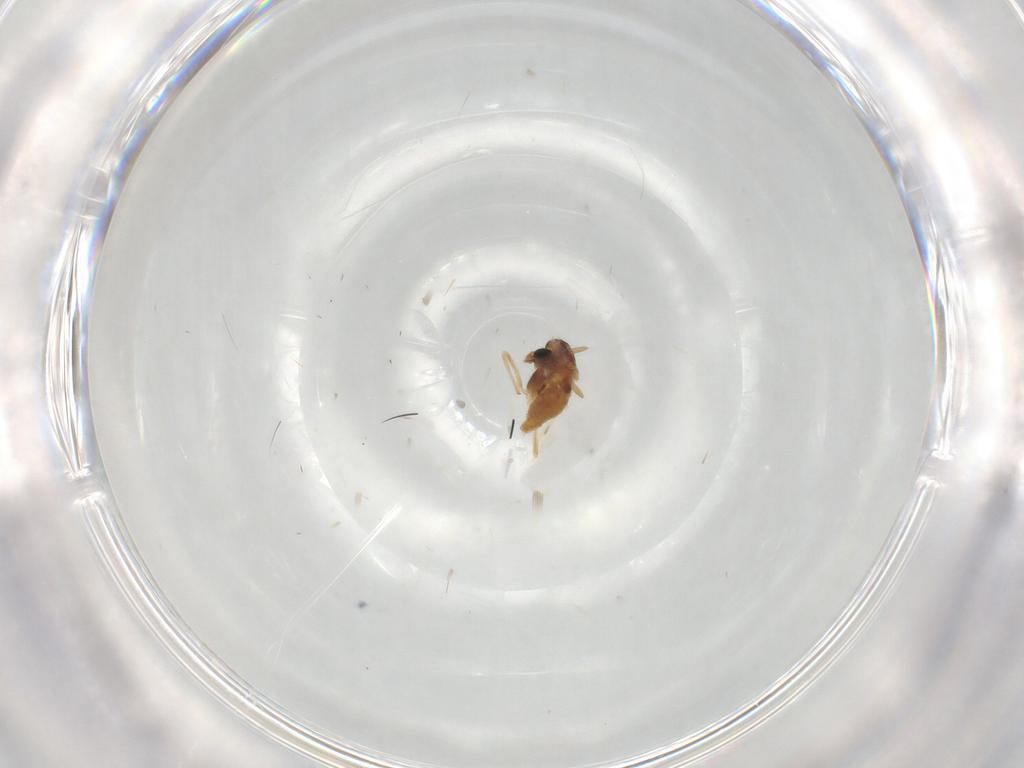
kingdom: Animalia
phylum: Arthropoda
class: Insecta
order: Diptera
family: Chironomidae
